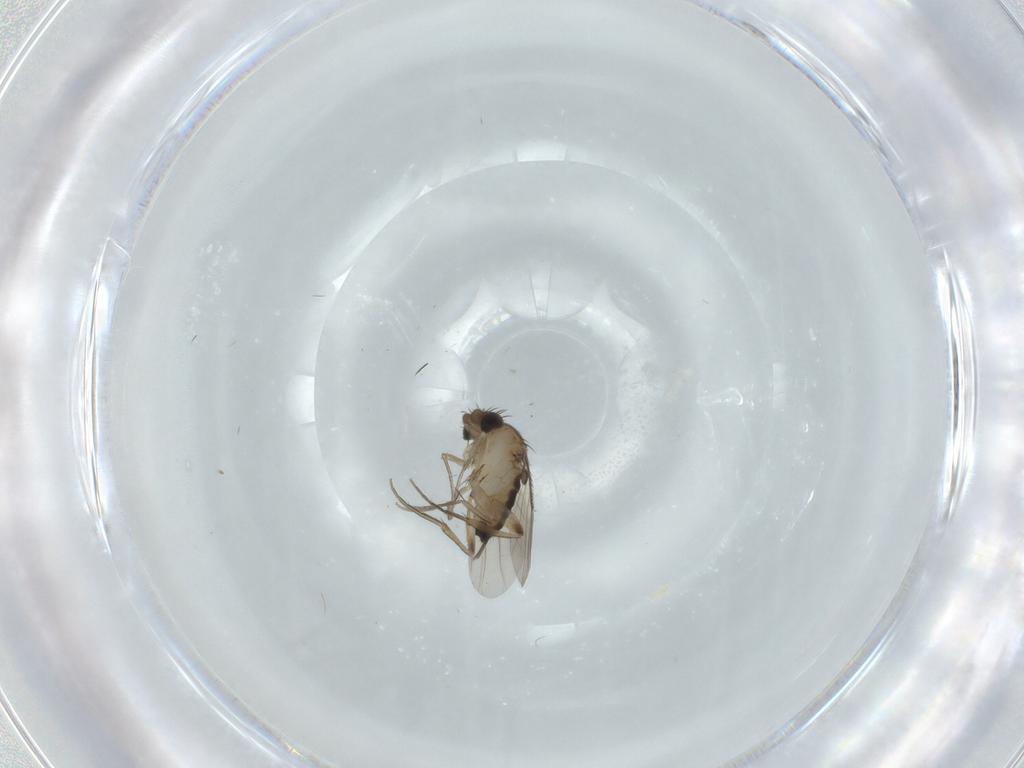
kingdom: Animalia
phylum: Arthropoda
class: Insecta
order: Diptera
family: Phoridae
